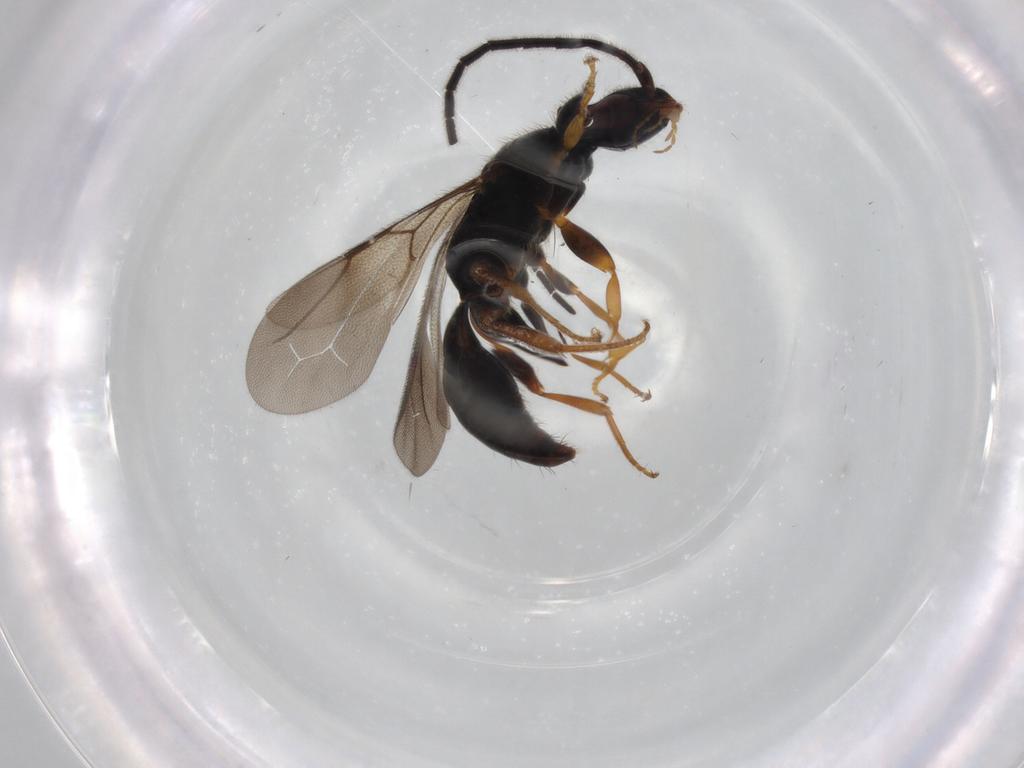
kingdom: Animalia
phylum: Arthropoda
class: Insecta
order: Hymenoptera
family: Bethylidae
